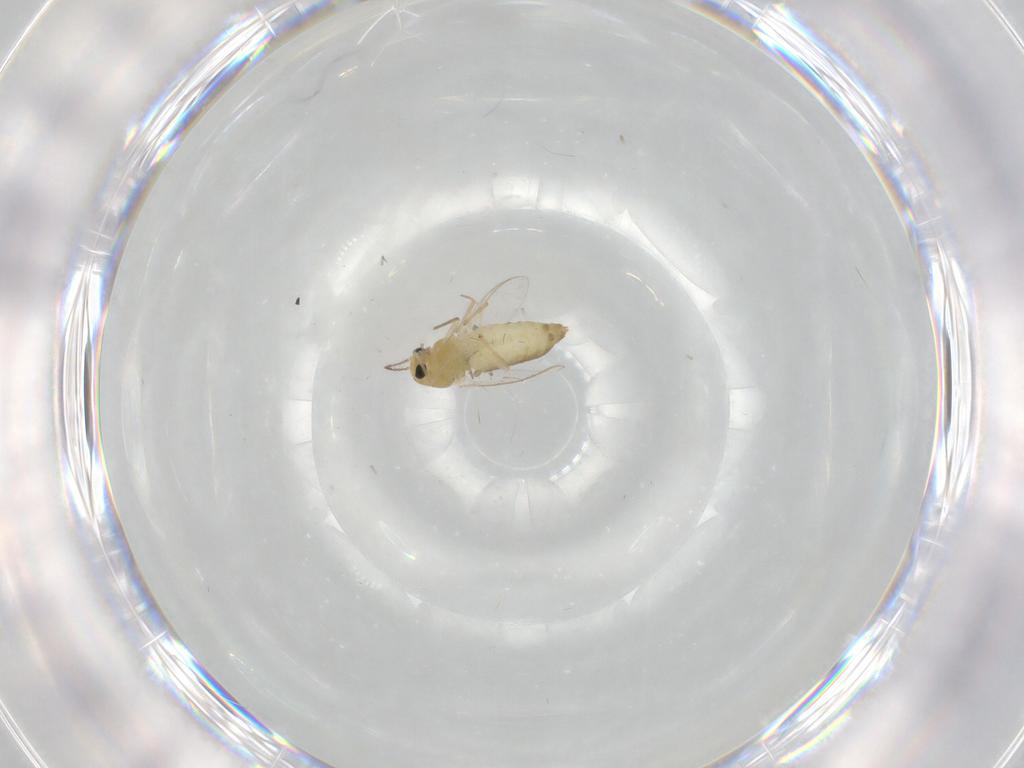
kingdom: Animalia
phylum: Arthropoda
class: Insecta
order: Diptera
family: Chironomidae
